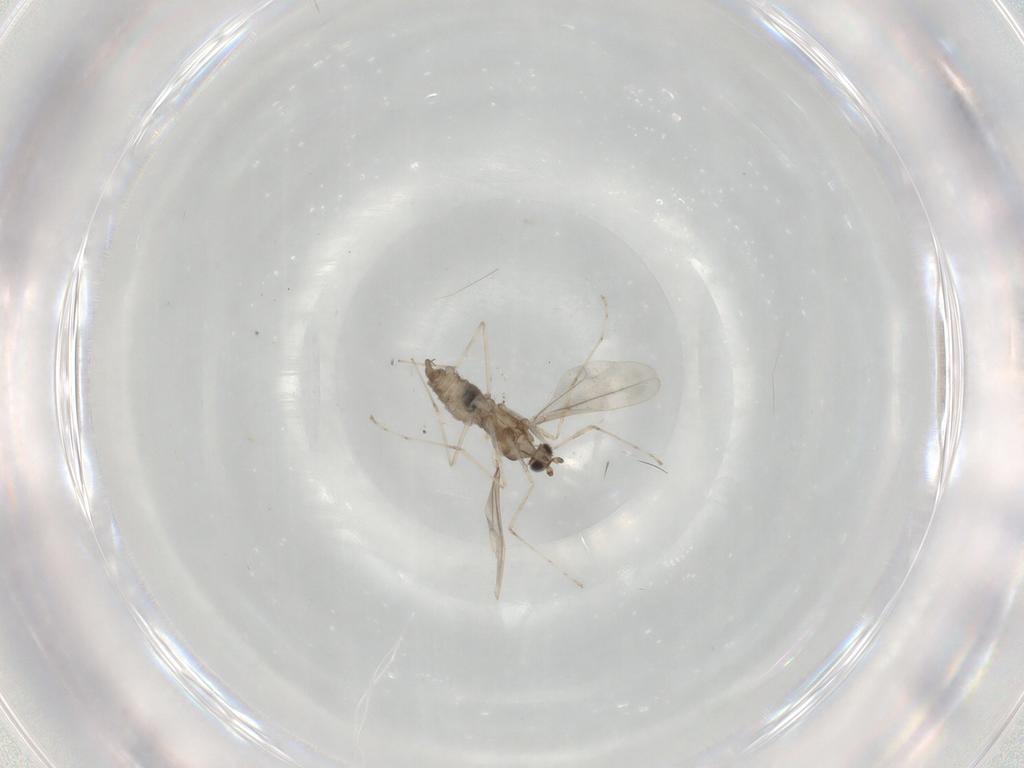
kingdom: Animalia
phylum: Arthropoda
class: Insecta
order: Diptera
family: Cecidomyiidae
